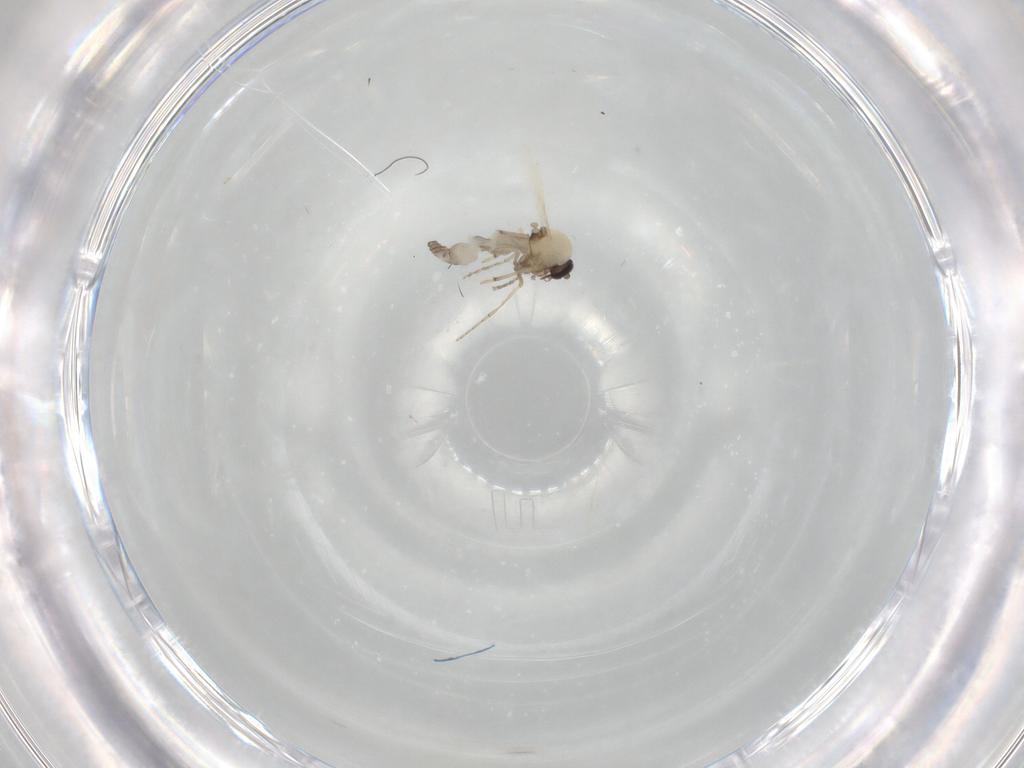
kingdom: Animalia
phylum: Arthropoda
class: Insecta
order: Diptera
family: Ceratopogonidae
